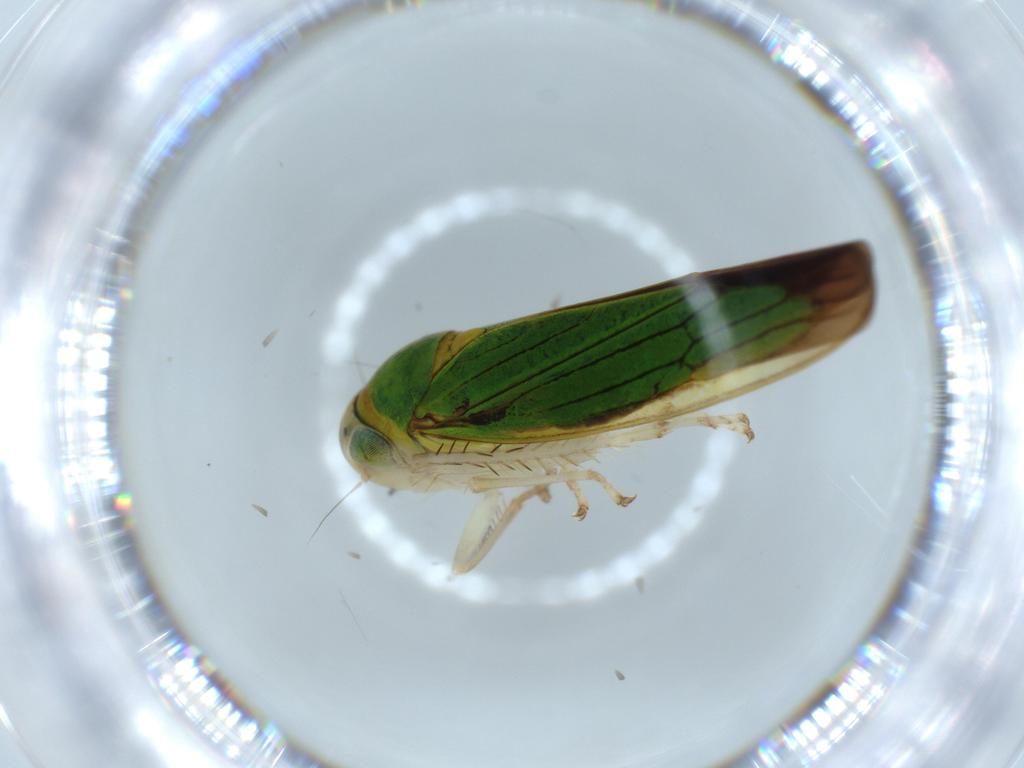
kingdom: Animalia
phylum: Arthropoda
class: Insecta
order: Hemiptera
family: Cicadellidae
